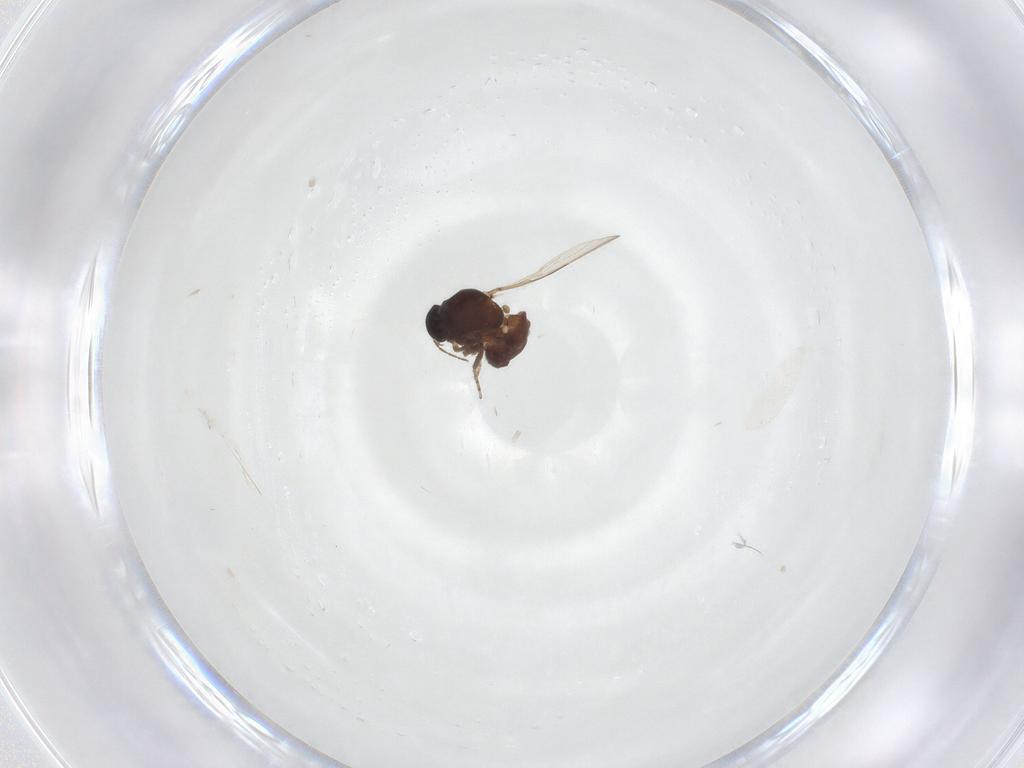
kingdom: Animalia
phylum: Arthropoda
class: Insecta
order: Diptera
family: Ceratopogonidae
